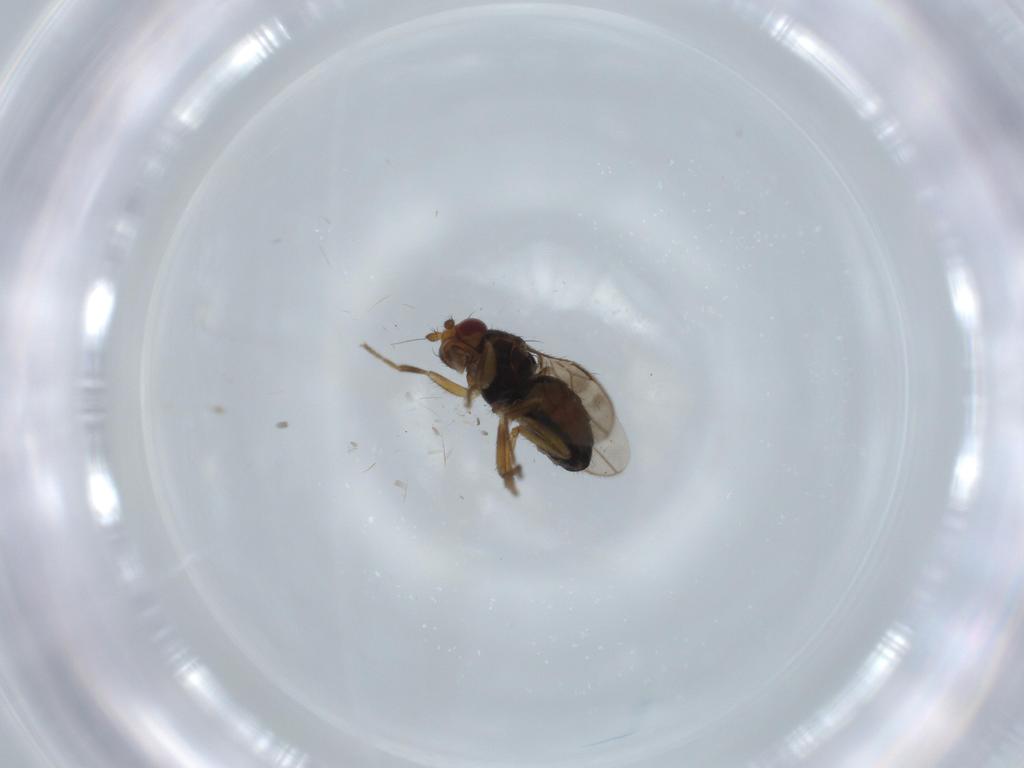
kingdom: Animalia
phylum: Arthropoda
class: Insecta
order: Diptera
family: Sphaeroceridae
